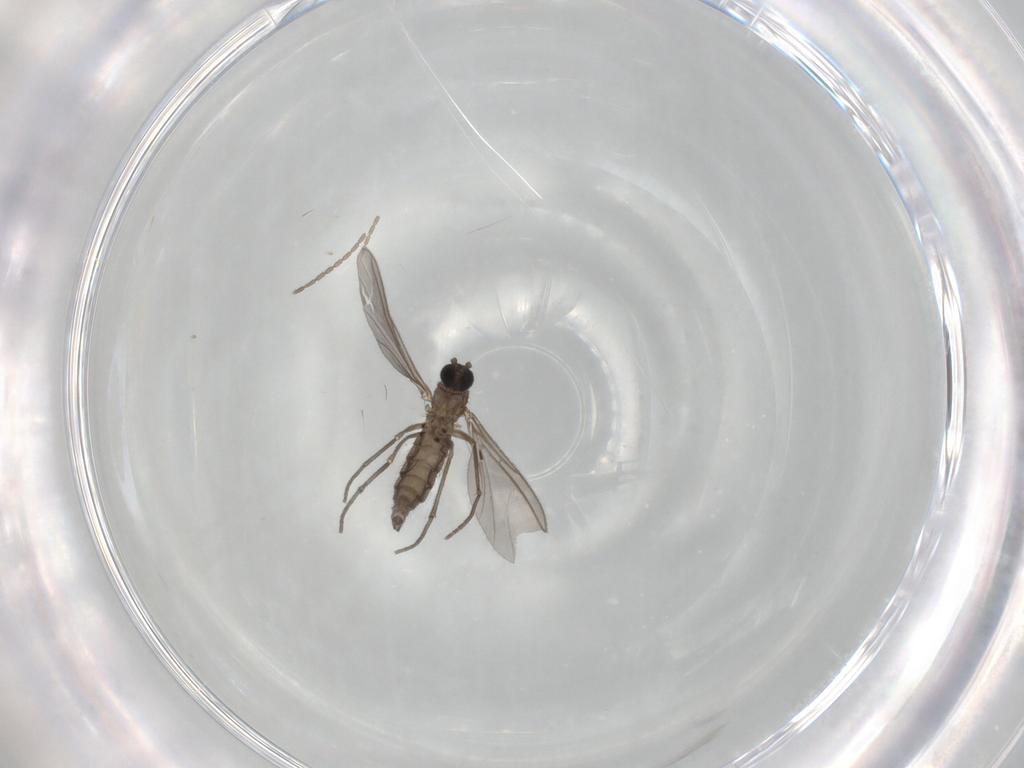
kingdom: Animalia
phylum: Arthropoda
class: Insecta
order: Diptera
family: Sciaridae
